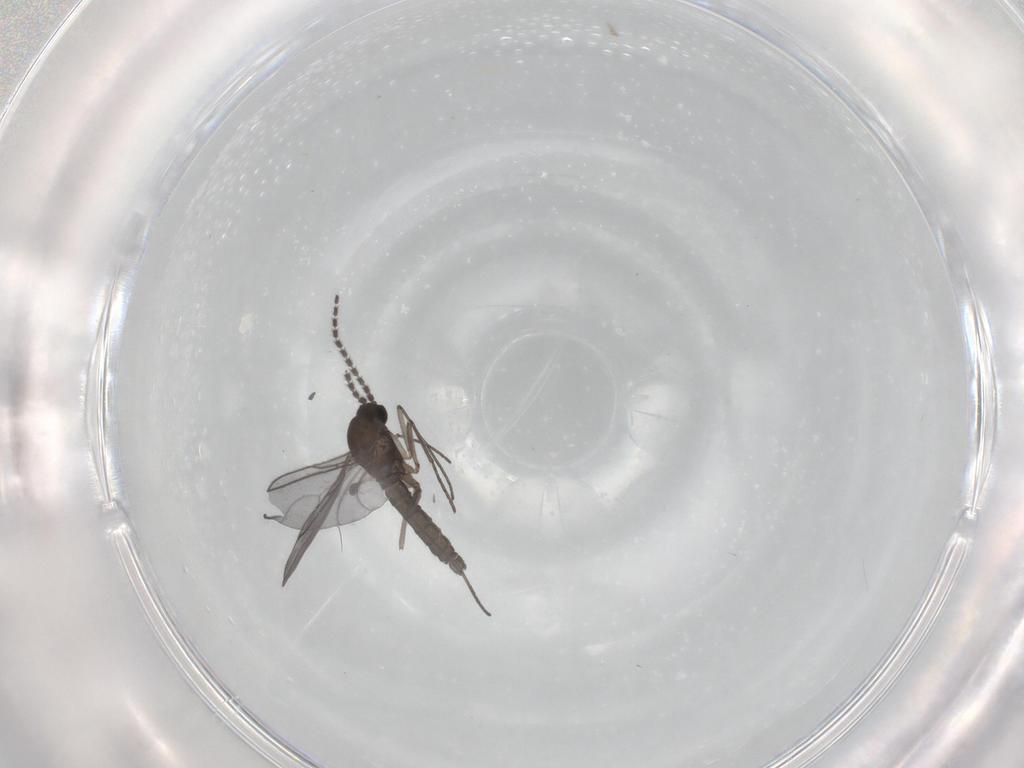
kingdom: Animalia
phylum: Arthropoda
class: Insecta
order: Diptera
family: Sciaridae
